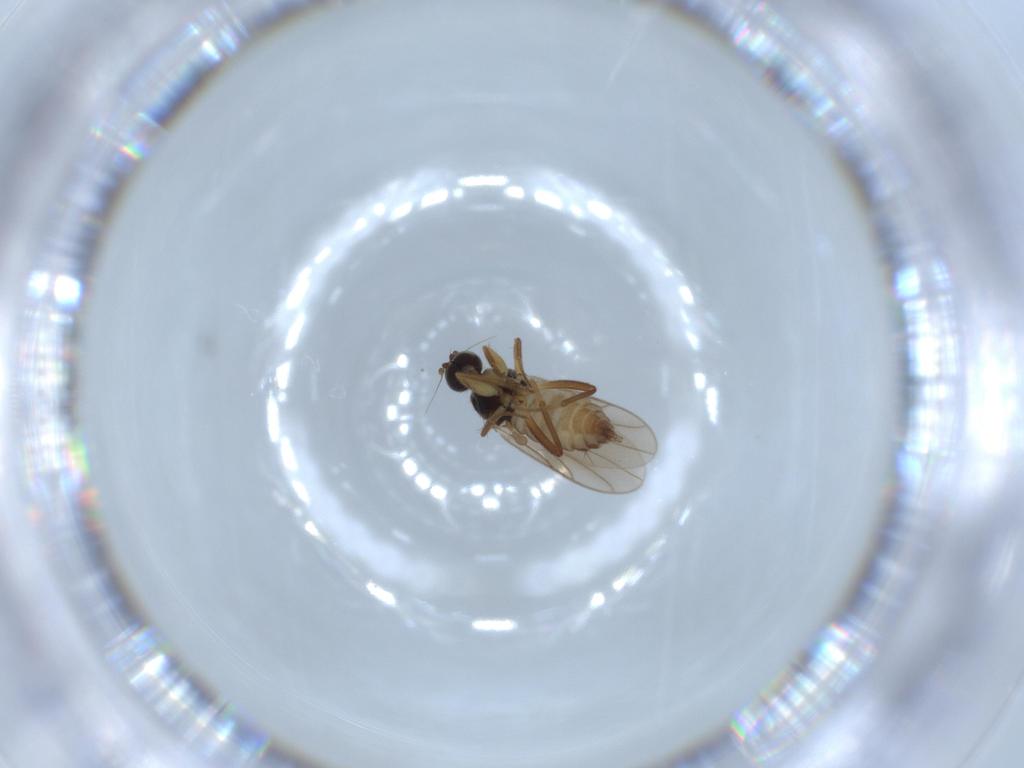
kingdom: Animalia
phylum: Arthropoda
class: Insecta
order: Diptera
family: Hybotidae
